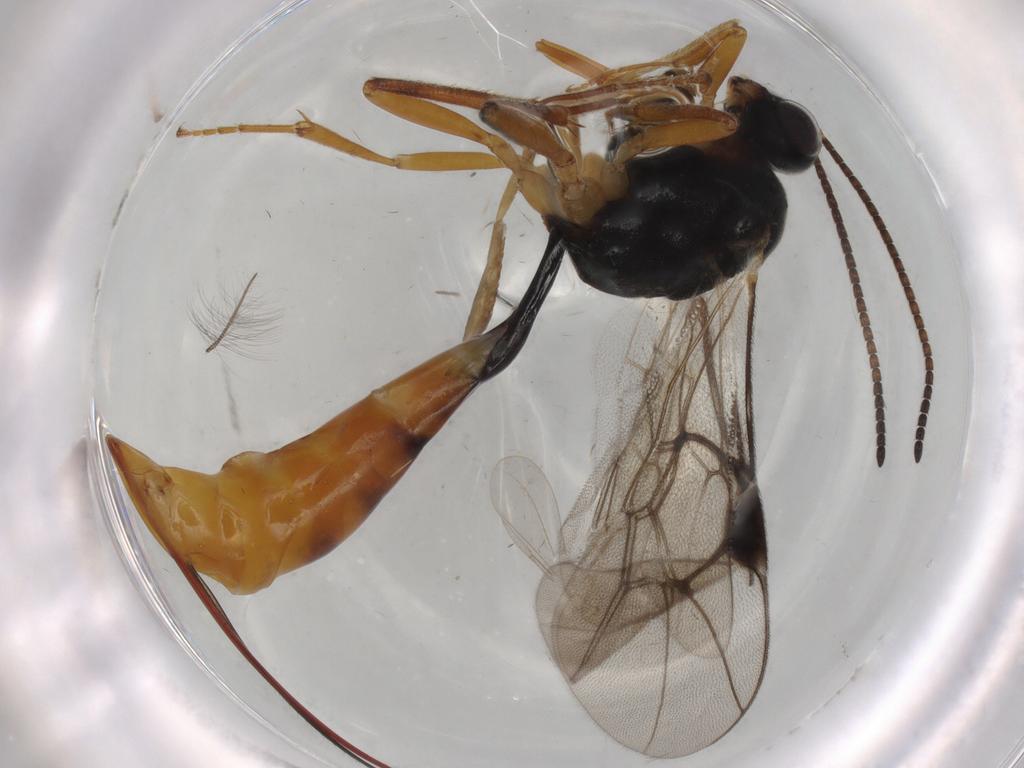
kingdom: Animalia
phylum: Arthropoda
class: Insecta
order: Hymenoptera
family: Ichneumonidae
